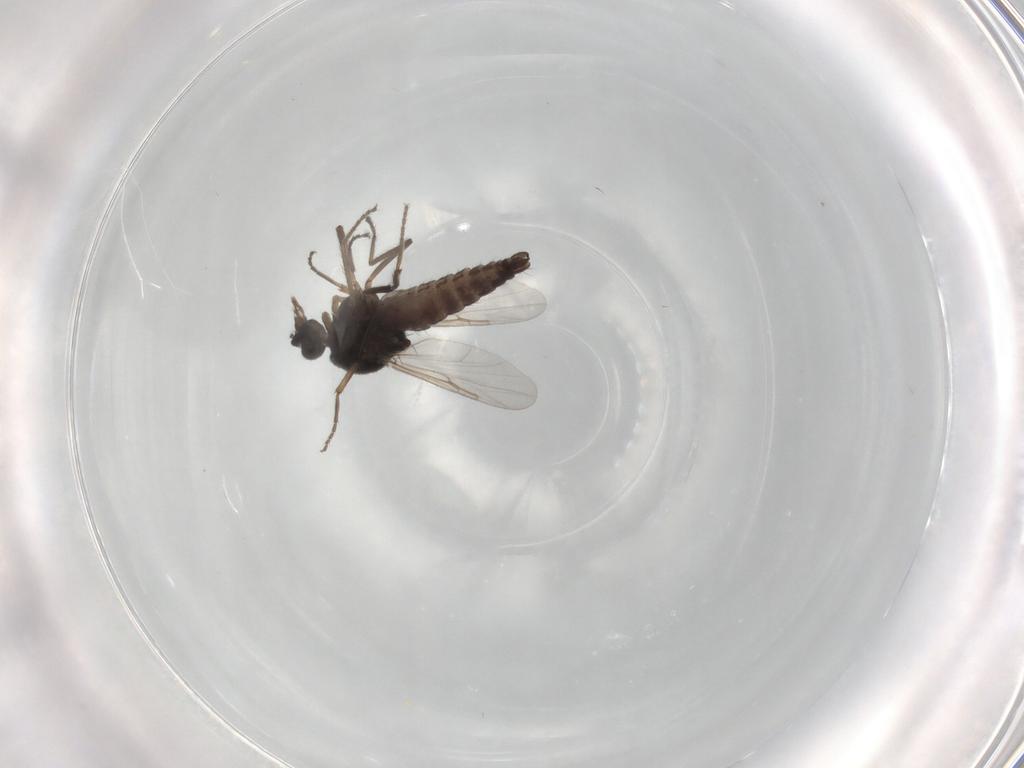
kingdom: Animalia
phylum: Arthropoda
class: Insecta
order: Diptera
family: Ceratopogonidae
